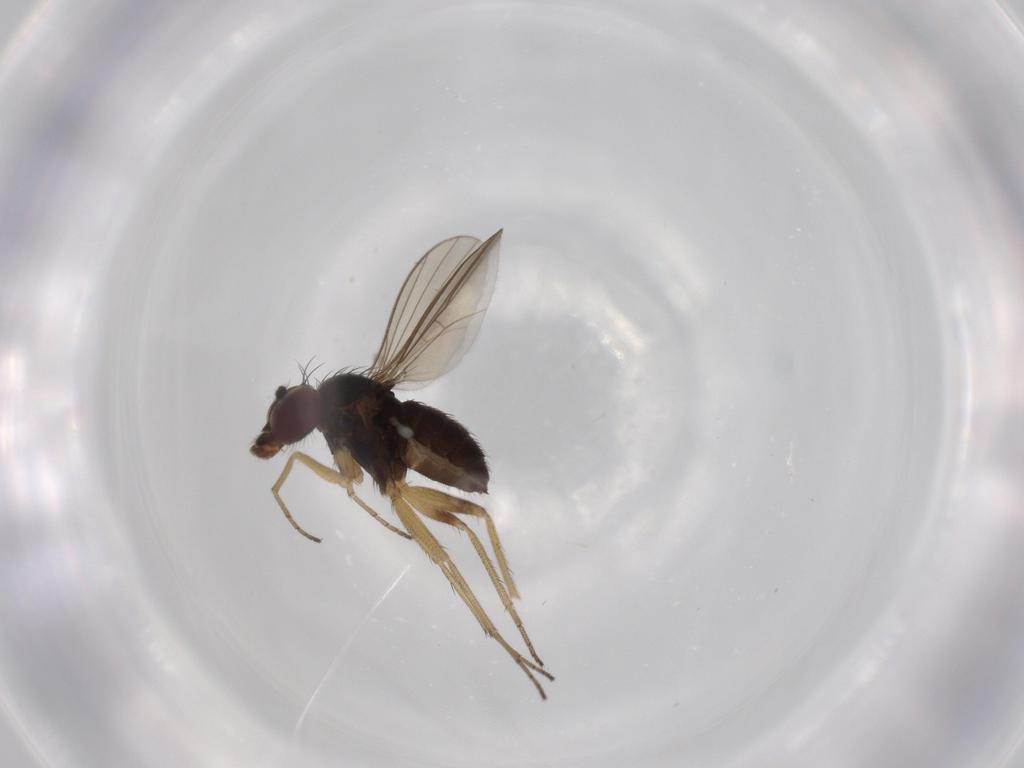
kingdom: Animalia
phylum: Arthropoda
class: Insecta
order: Diptera
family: Dolichopodidae
